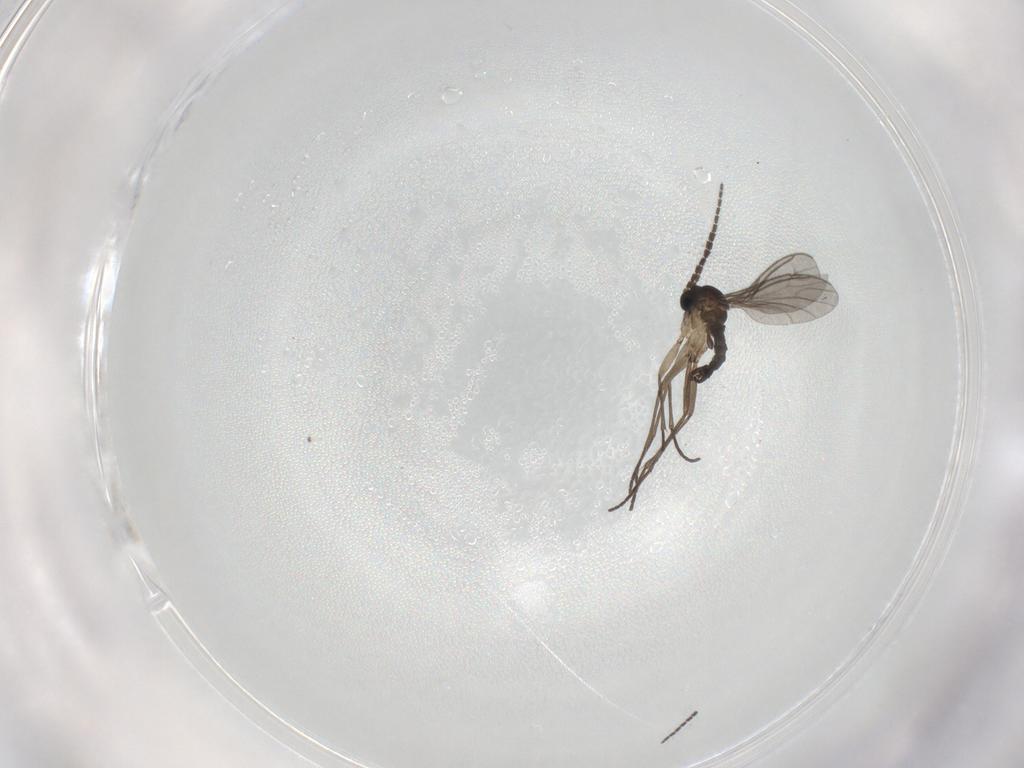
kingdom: Animalia
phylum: Arthropoda
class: Insecta
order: Diptera
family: Sciaridae
